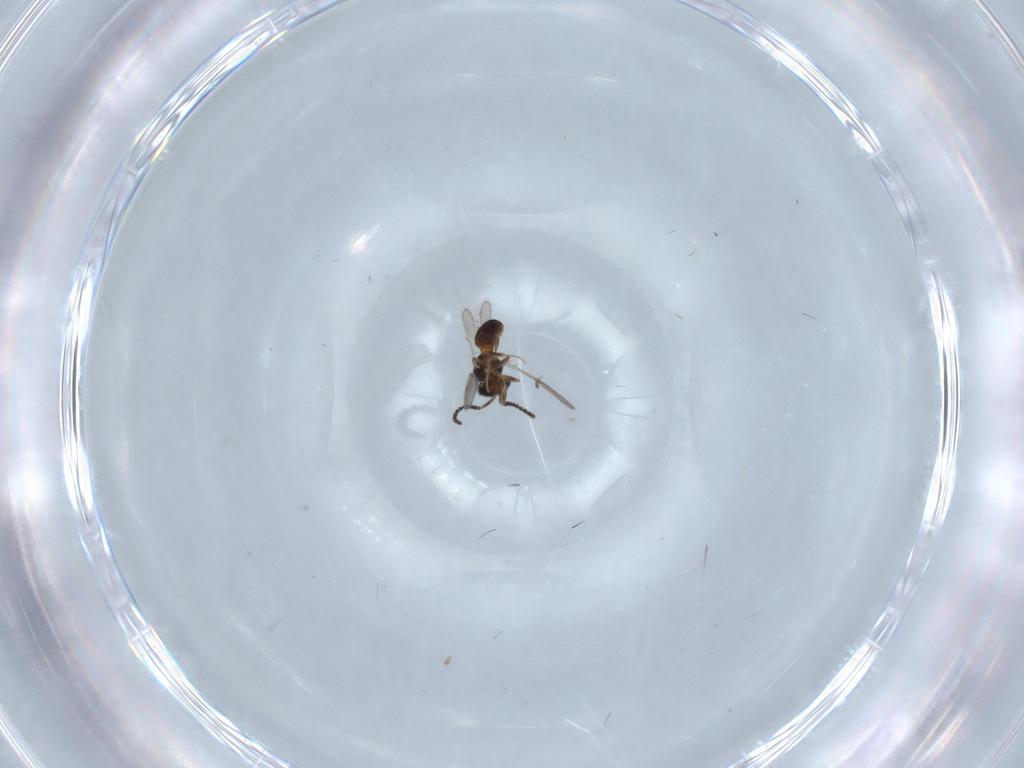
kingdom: Animalia
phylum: Arthropoda
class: Insecta
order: Hymenoptera
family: Scelionidae
